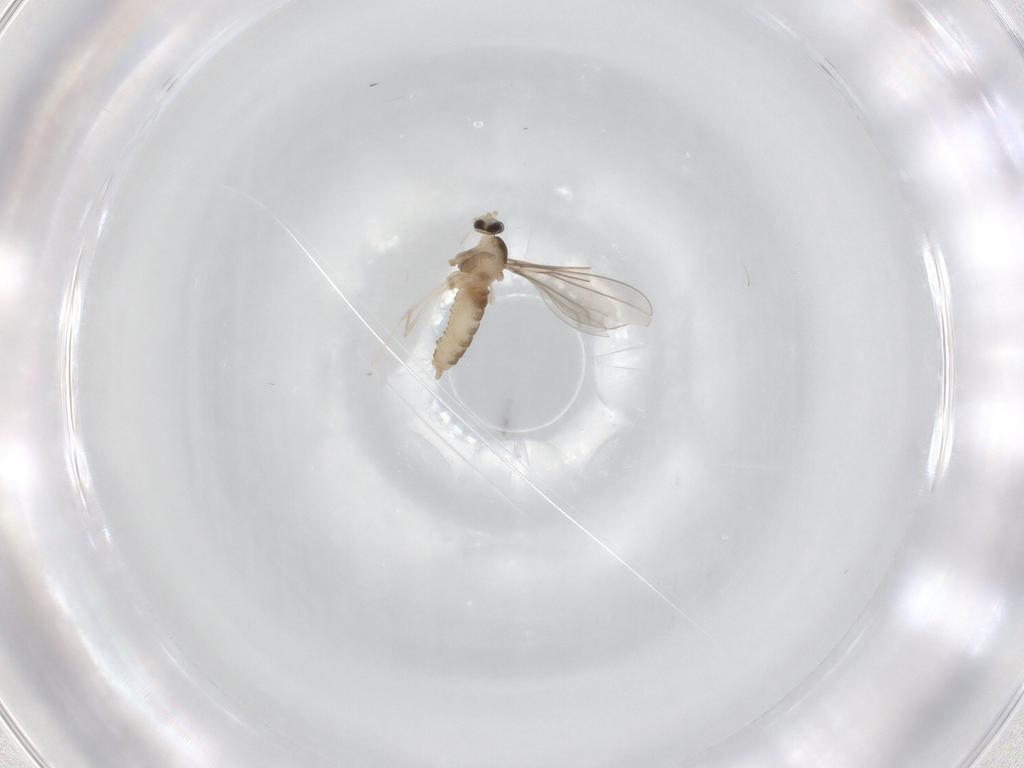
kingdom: Animalia
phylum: Arthropoda
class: Insecta
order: Diptera
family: Cecidomyiidae
